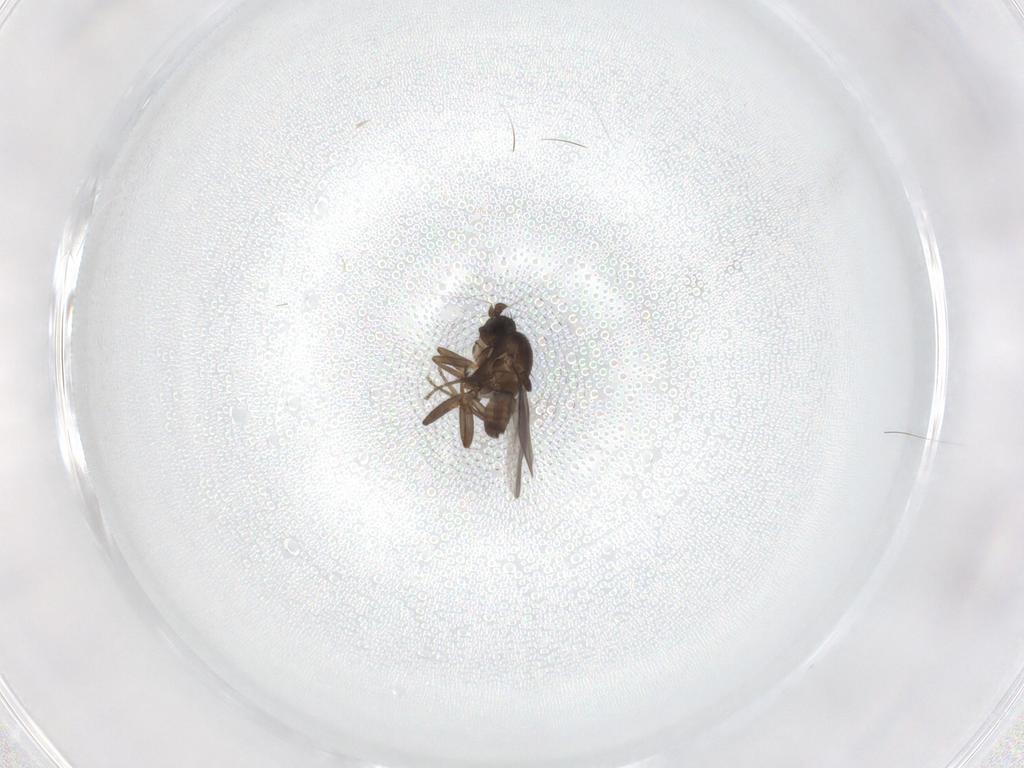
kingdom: Animalia
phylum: Arthropoda
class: Insecta
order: Diptera
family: Sphaeroceridae
